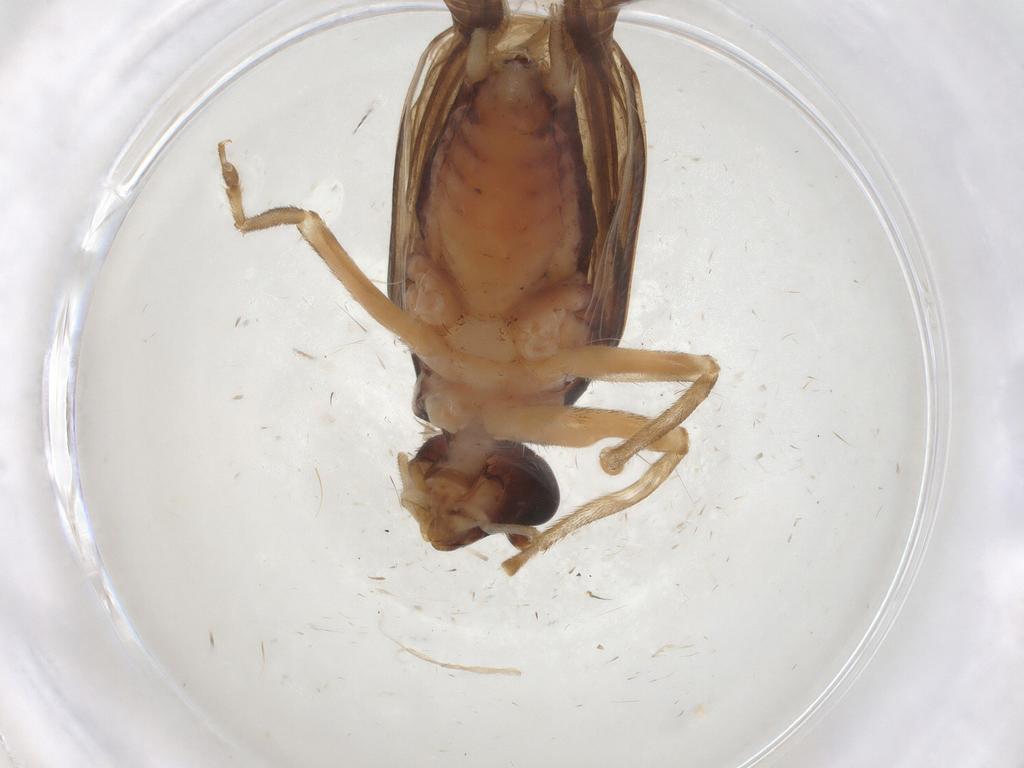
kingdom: Animalia
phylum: Arthropoda
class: Insecta
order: Orthoptera
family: Trigonidiidae
